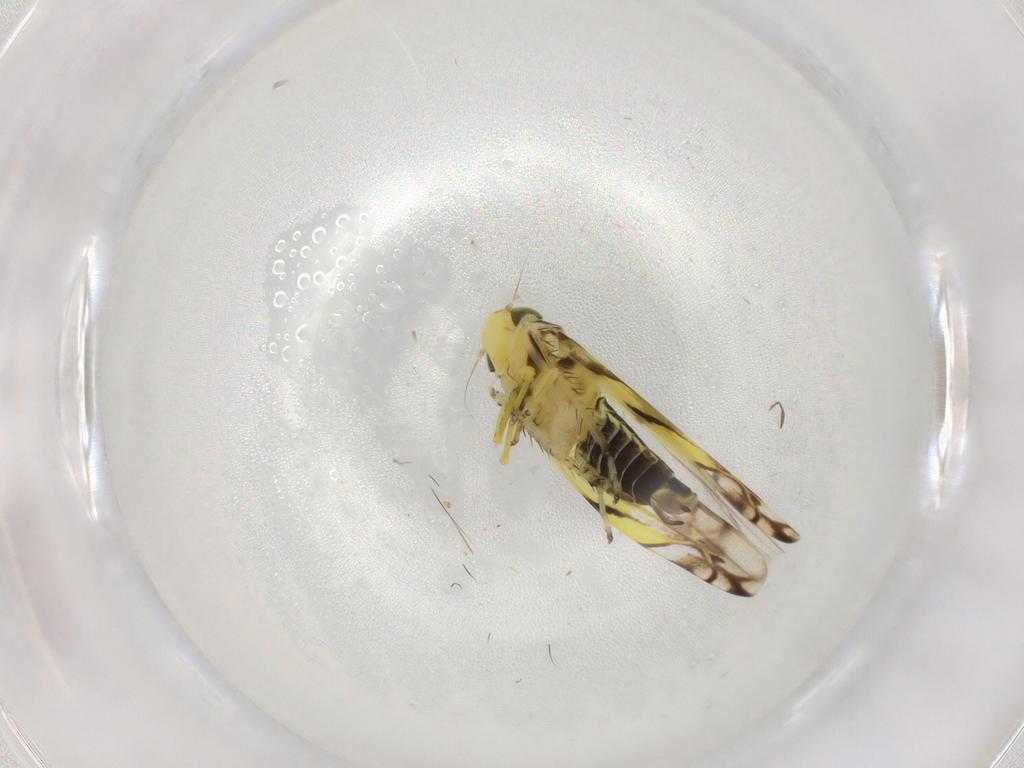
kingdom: Animalia
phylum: Arthropoda
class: Insecta
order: Hemiptera
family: Cicadellidae
